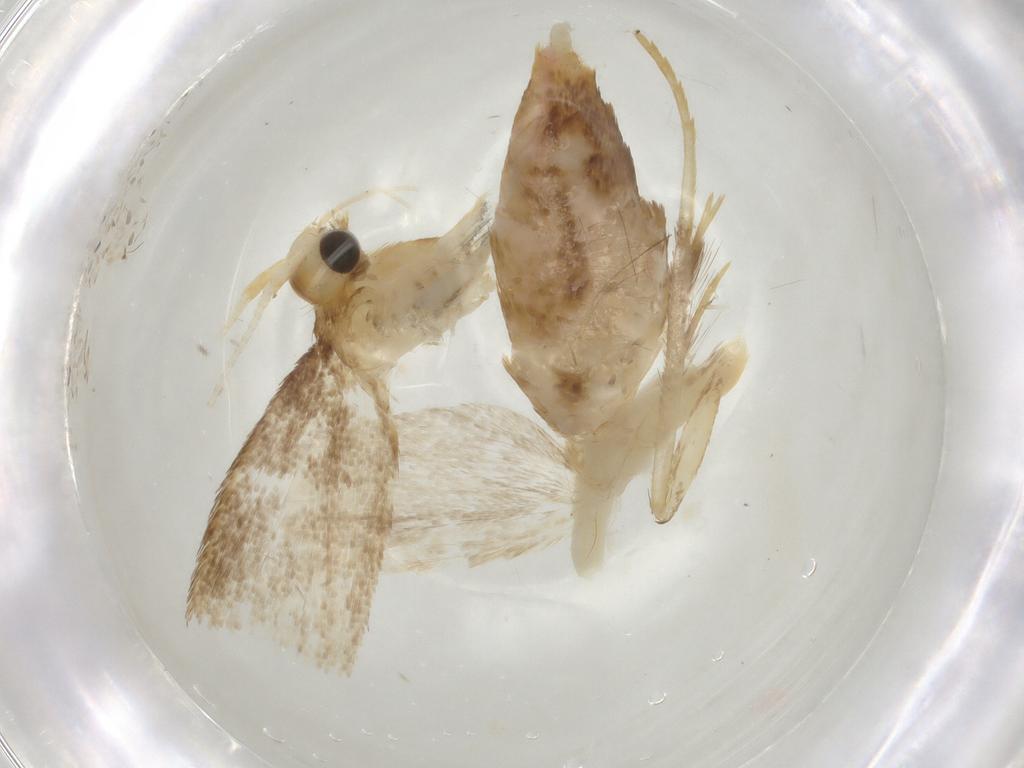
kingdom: Animalia
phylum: Arthropoda
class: Insecta
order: Lepidoptera
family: Lecithoceridae
